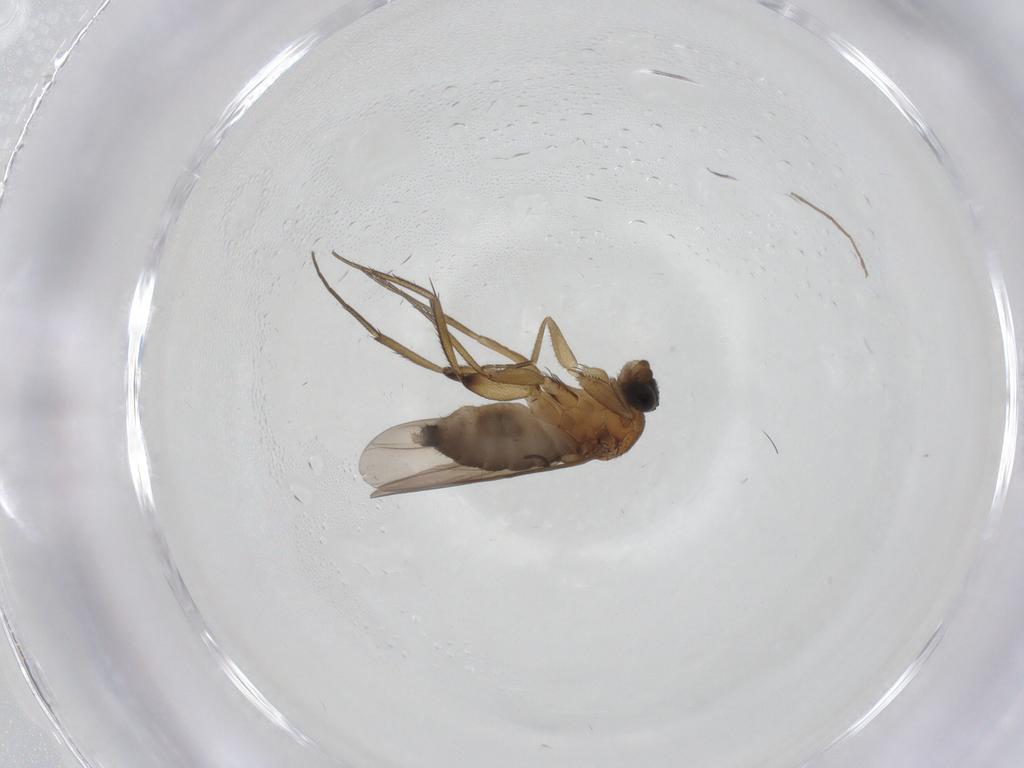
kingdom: Animalia
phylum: Arthropoda
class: Insecta
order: Diptera
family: Phoridae
